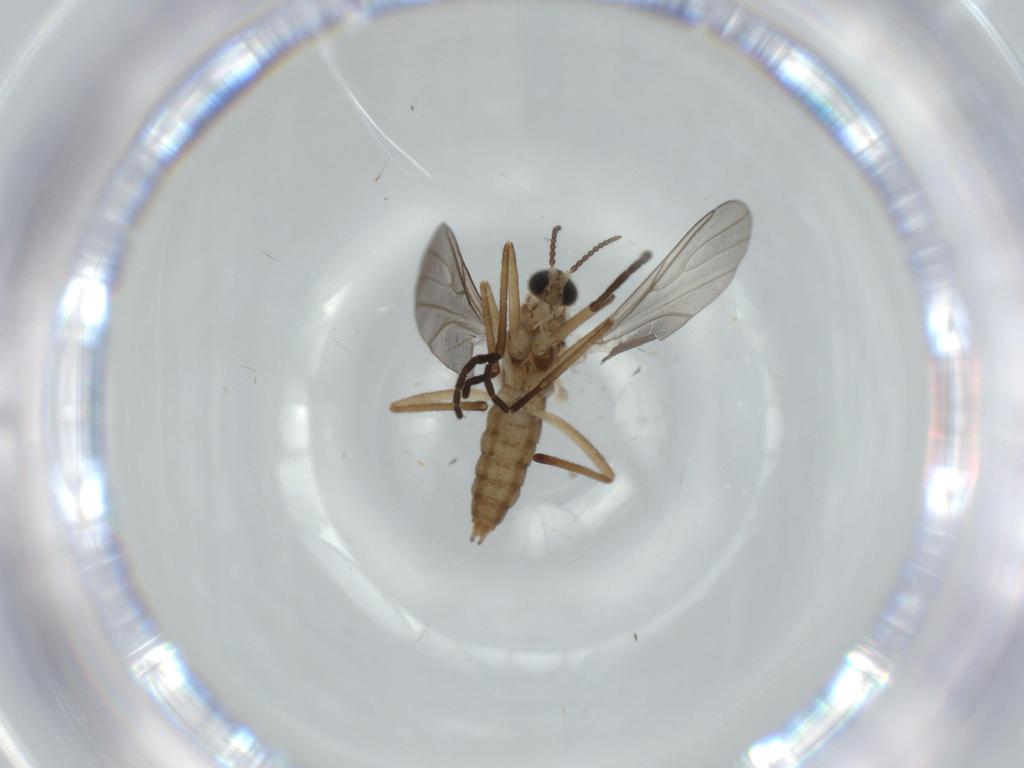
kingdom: Animalia
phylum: Arthropoda
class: Insecta
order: Diptera
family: Cecidomyiidae
